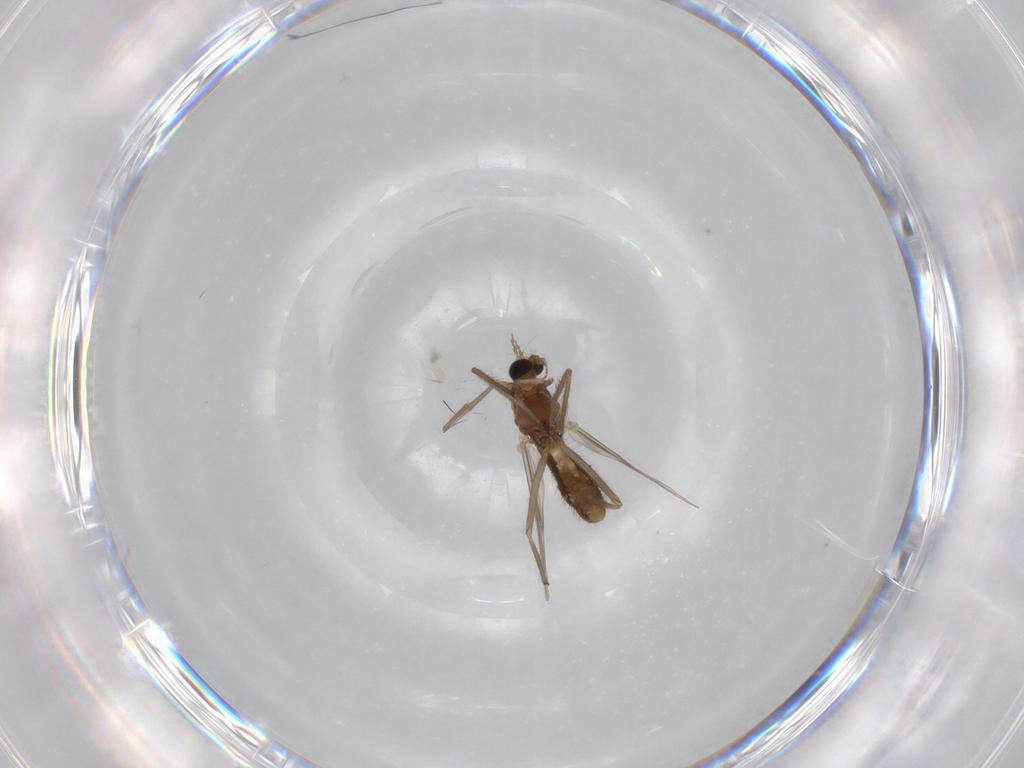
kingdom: Animalia
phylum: Arthropoda
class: Insecta
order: Diptera
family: Chironomidae
